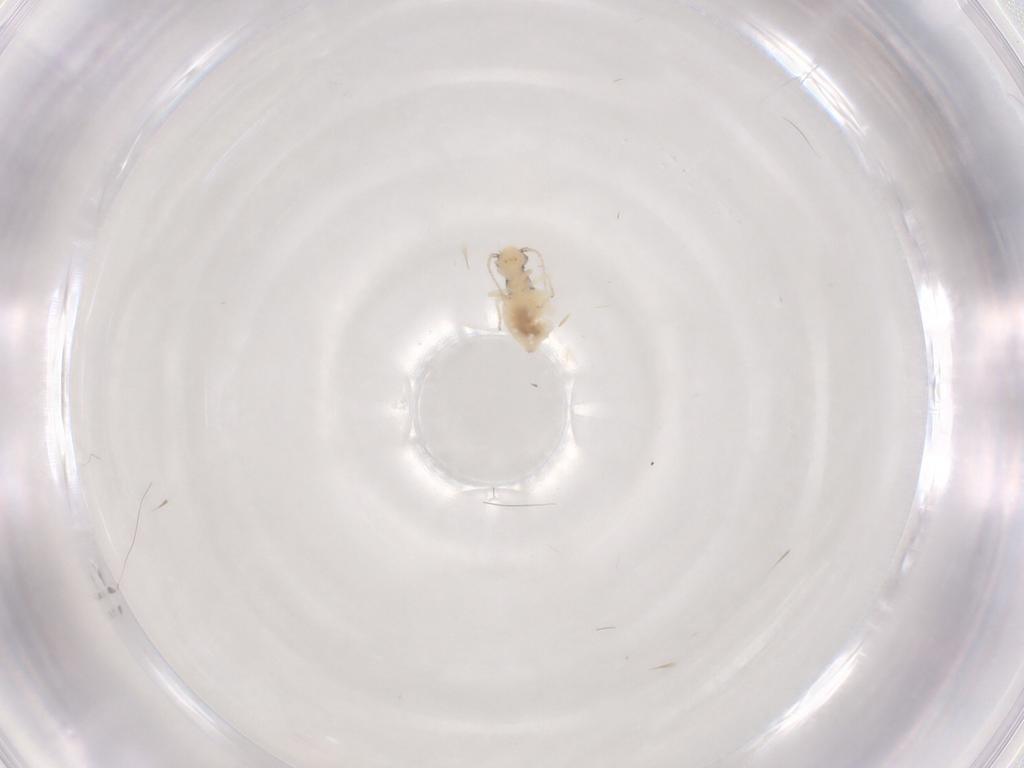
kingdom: Animalia
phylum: Arthropoda
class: Insecta
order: Psocodea
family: Philotarsidae
